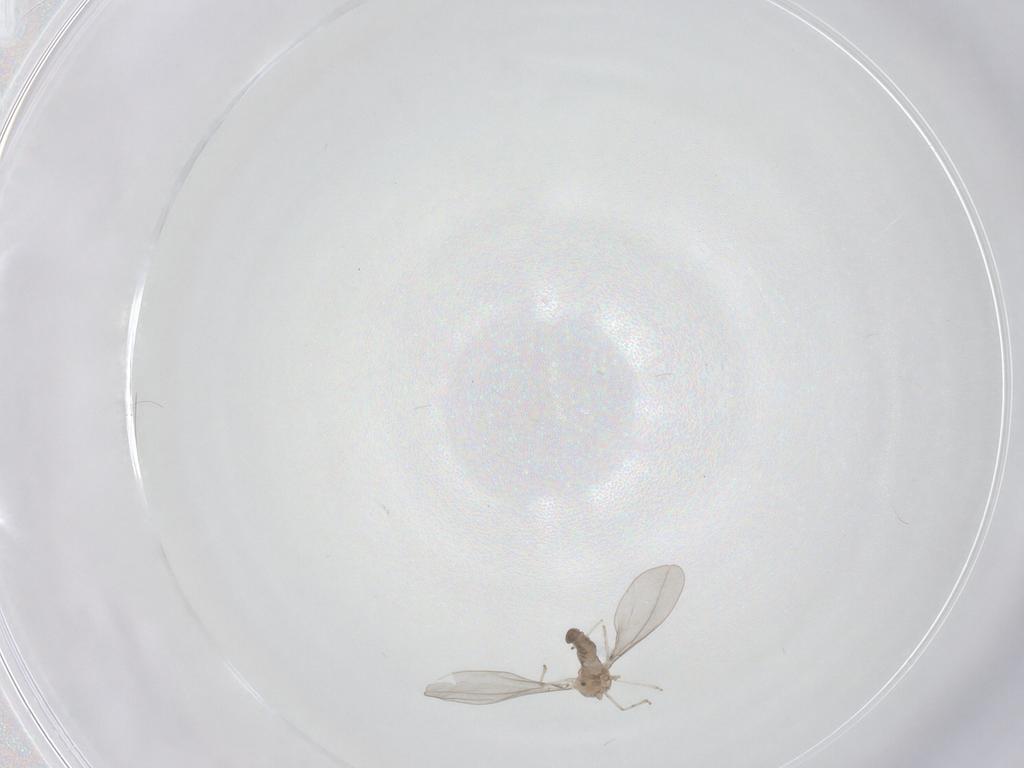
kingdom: Animalia
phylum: Arthropoda
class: Insecta
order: Diptera
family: Cecidomyiidae
